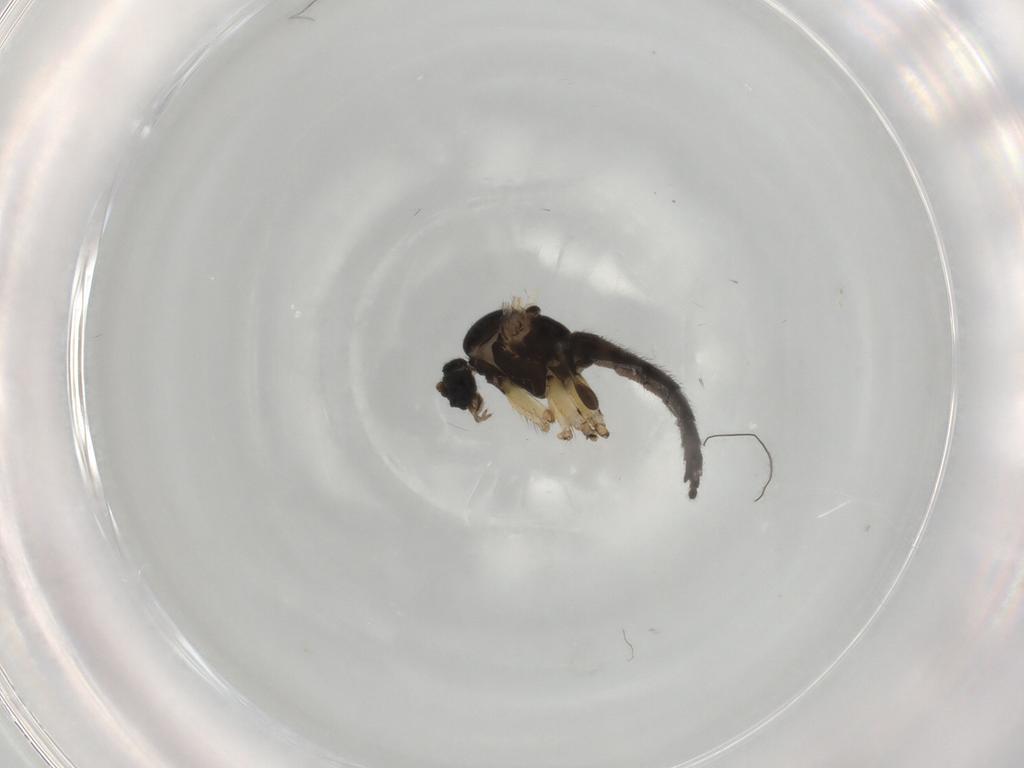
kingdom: Animalia
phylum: Arthropoda
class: Insecta
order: Diptera
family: Sciaridae
